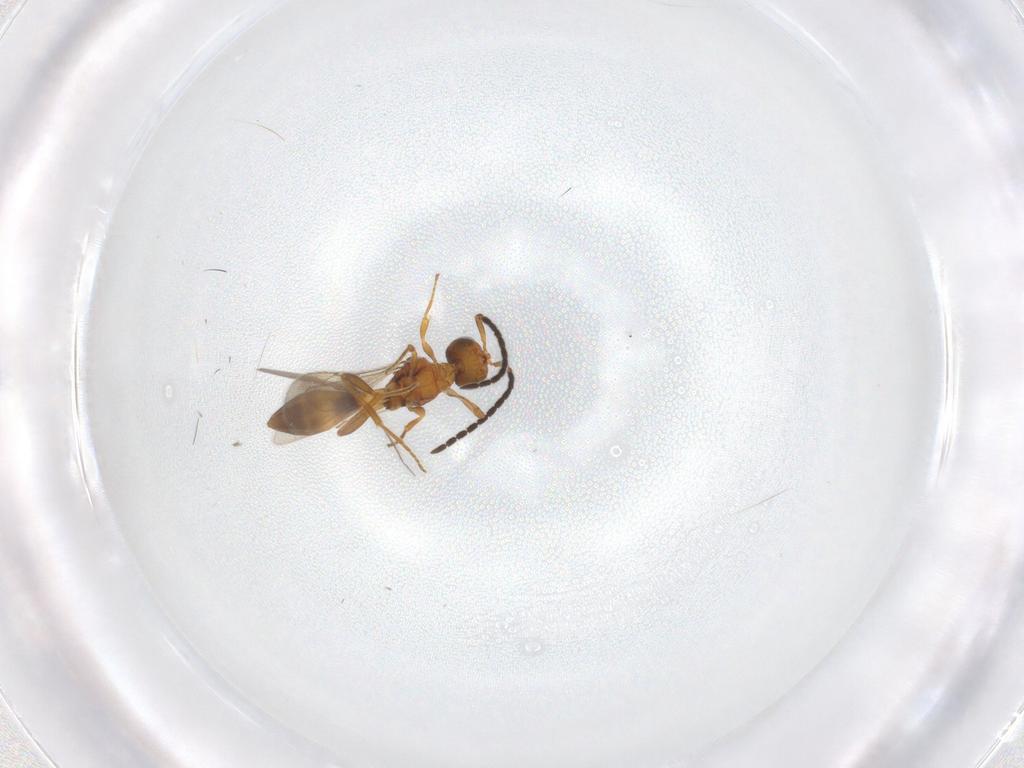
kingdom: Animalia
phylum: Arthropoda
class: Insecta
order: Hymenoptera
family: Scelionidae
